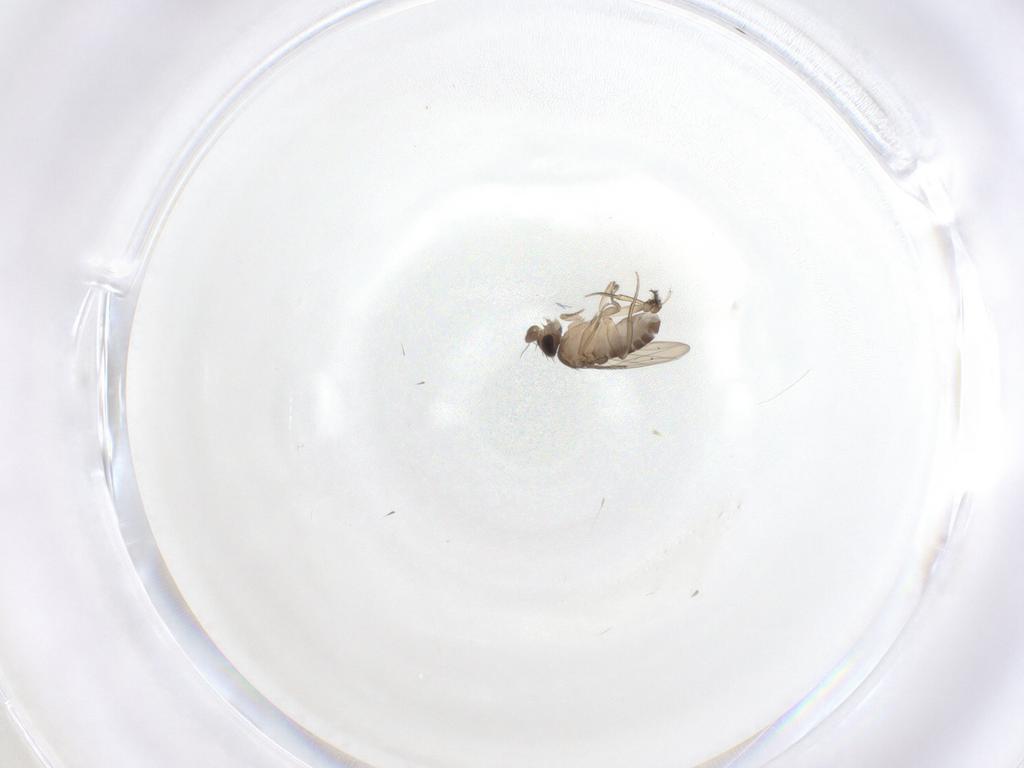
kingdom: Animalia
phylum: Arthropoda
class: Insecta
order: Diptera
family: Phoridae
